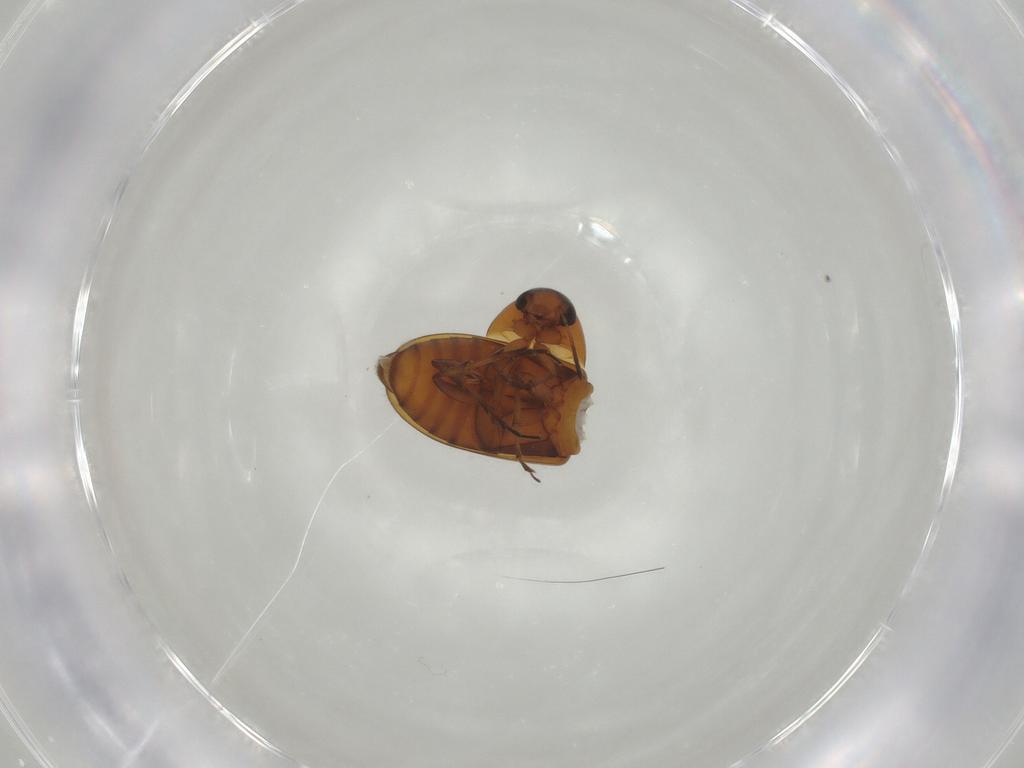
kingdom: Animalia
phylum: Arthropoda
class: Insecta
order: Coleoptera
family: Scraptiidae
